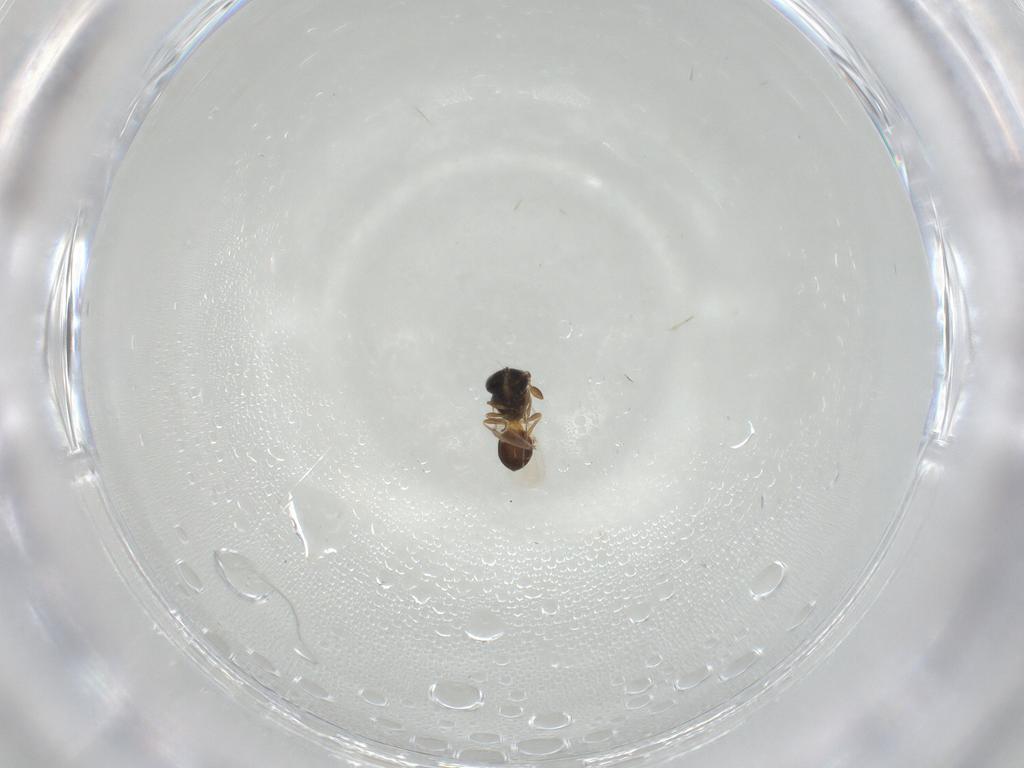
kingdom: Animalia
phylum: Arthropoda
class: Insecta
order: Hymenoptera
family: Scelionidae
